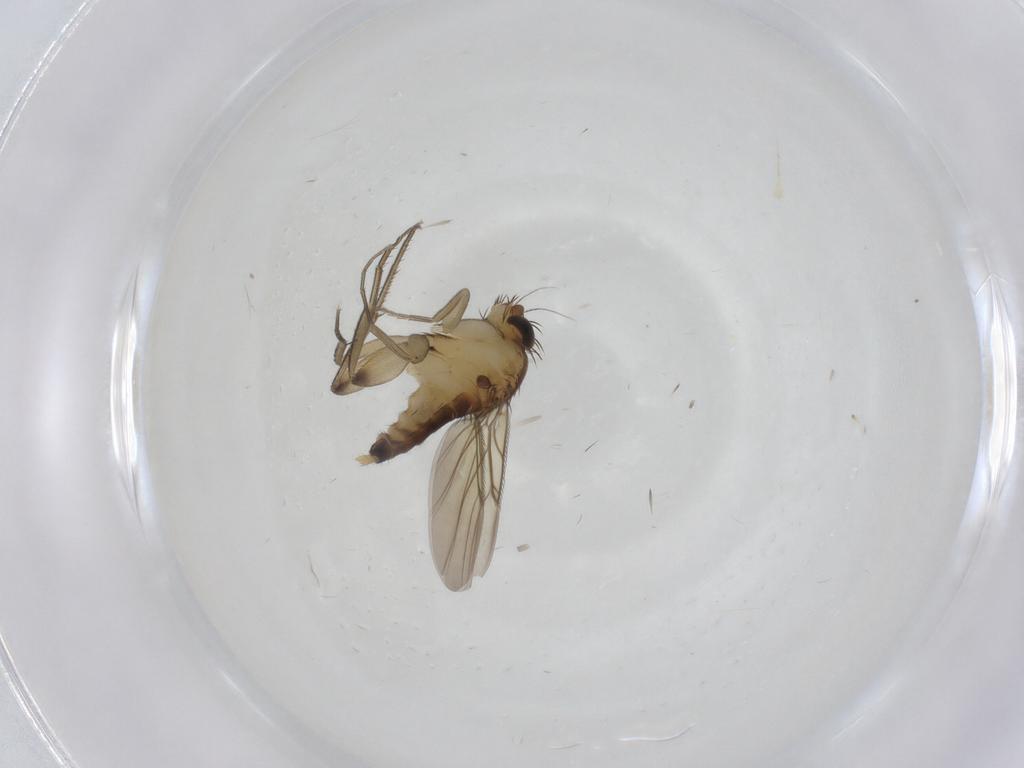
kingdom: Animalia
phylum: Arthropoda
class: Insecta
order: Diptera
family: Phoridae
